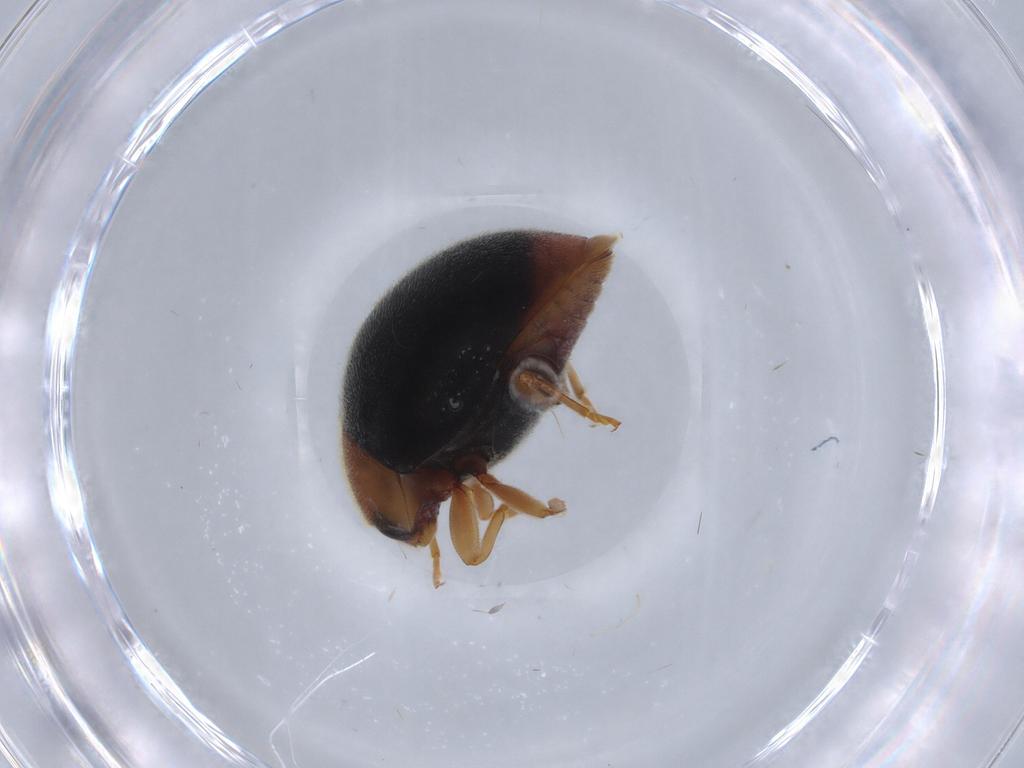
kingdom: Animalia
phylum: Arthropoda
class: Insecta
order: Coleoptera
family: Coccinellidae
